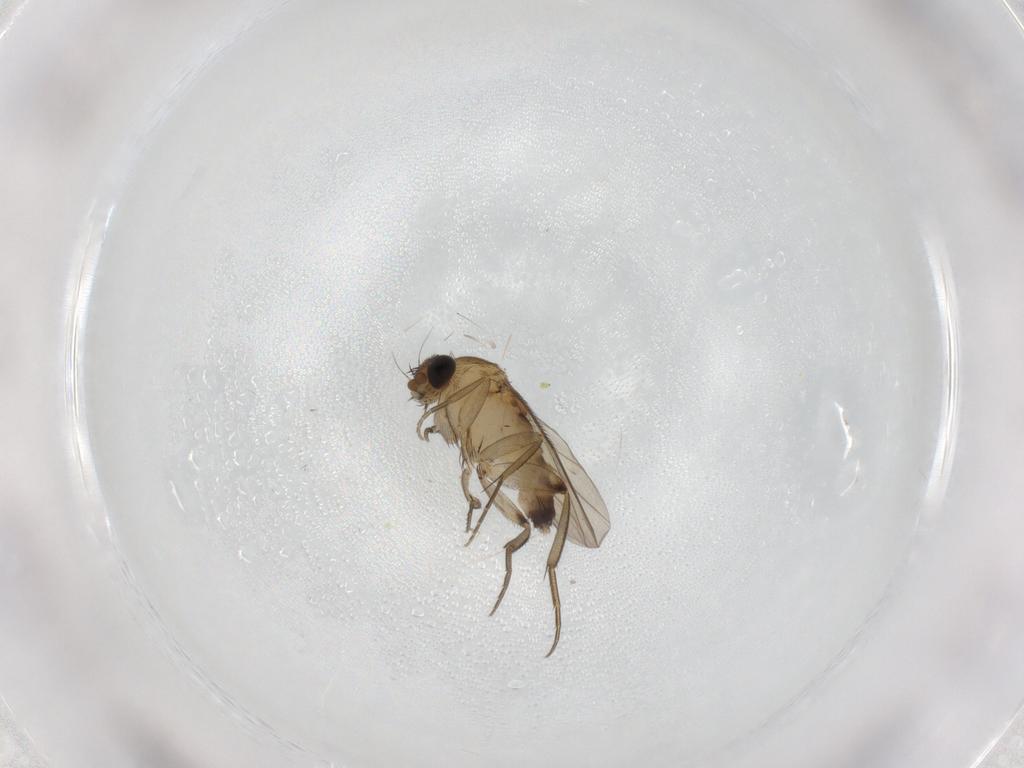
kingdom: Animalia
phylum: Arthropoda
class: Insecta
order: Diptera
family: Phoridae
